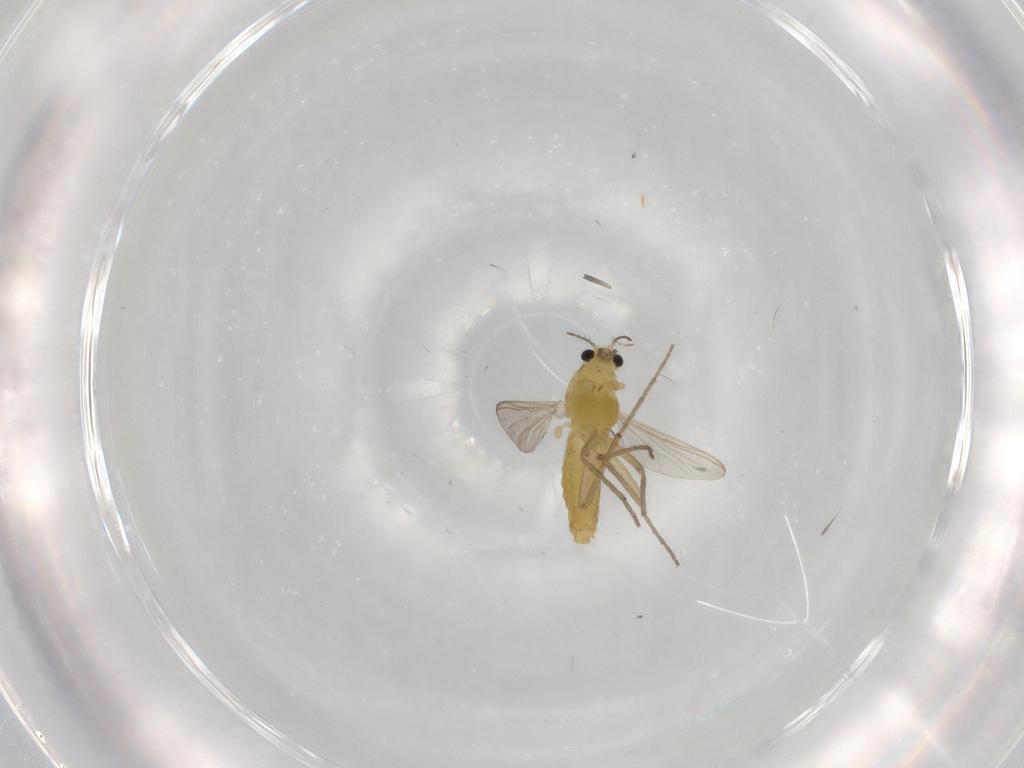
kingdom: Animalia
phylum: Arthropoda
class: Insecta
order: Diptera
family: Chironomidae
